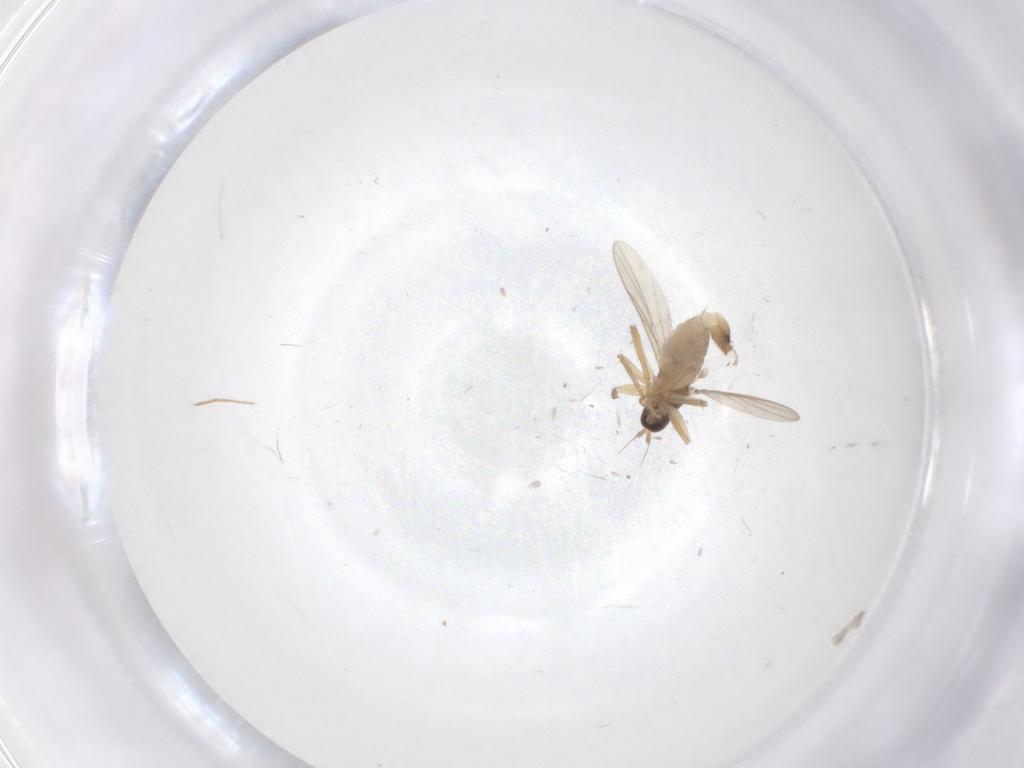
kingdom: Animalia
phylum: Arthropoda
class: Insecta
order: Diptera
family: Hybotidae
